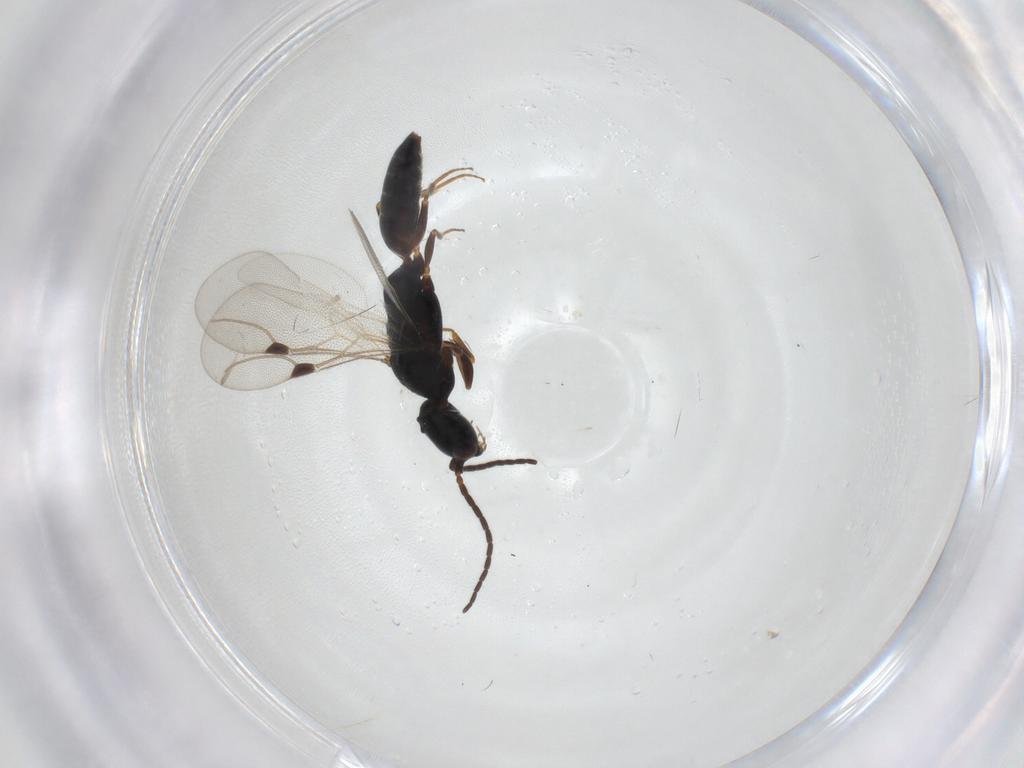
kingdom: Animalia
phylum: Arthropoda
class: Insecta
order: Hymenoptera
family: Bethylidae
